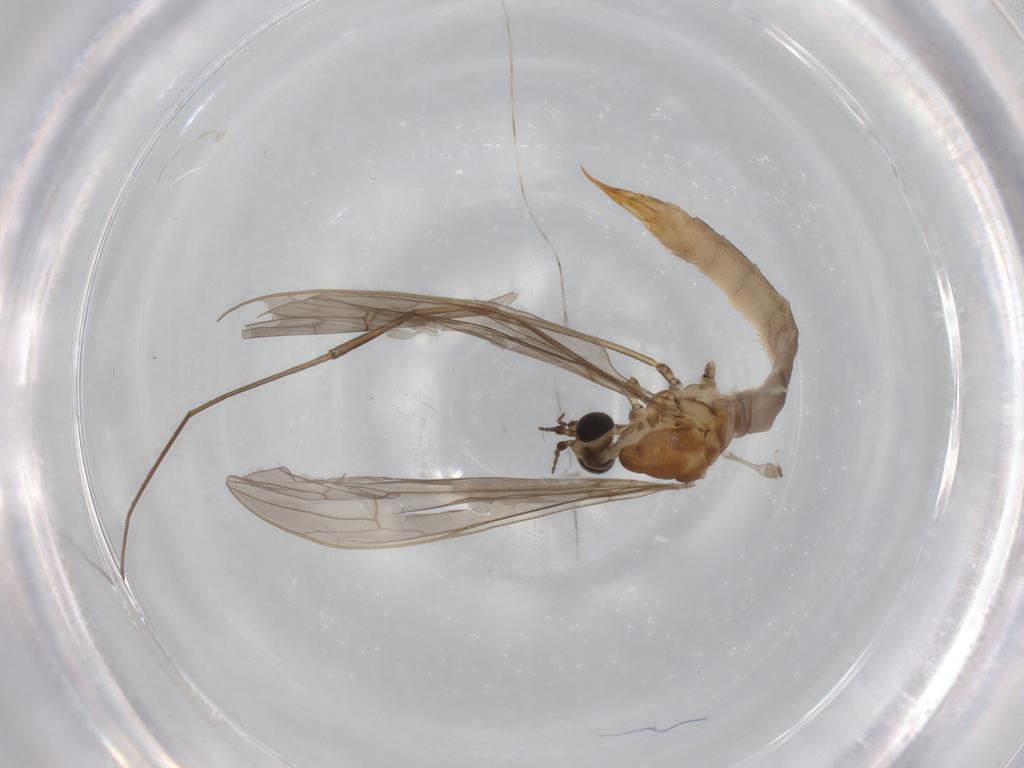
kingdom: Animalia
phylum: Arthropoda
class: Insecta
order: Diptera
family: Limoniidae
